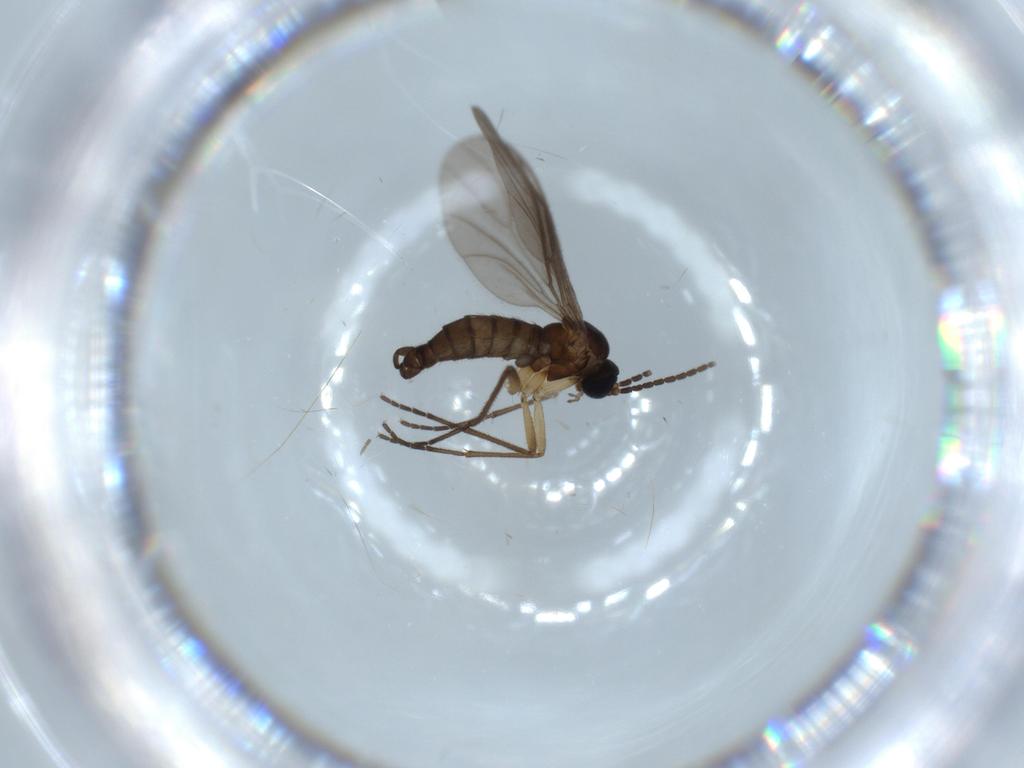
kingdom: Animalia
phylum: Arthropoda
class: Insecta
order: Diptera
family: Sciaridae
